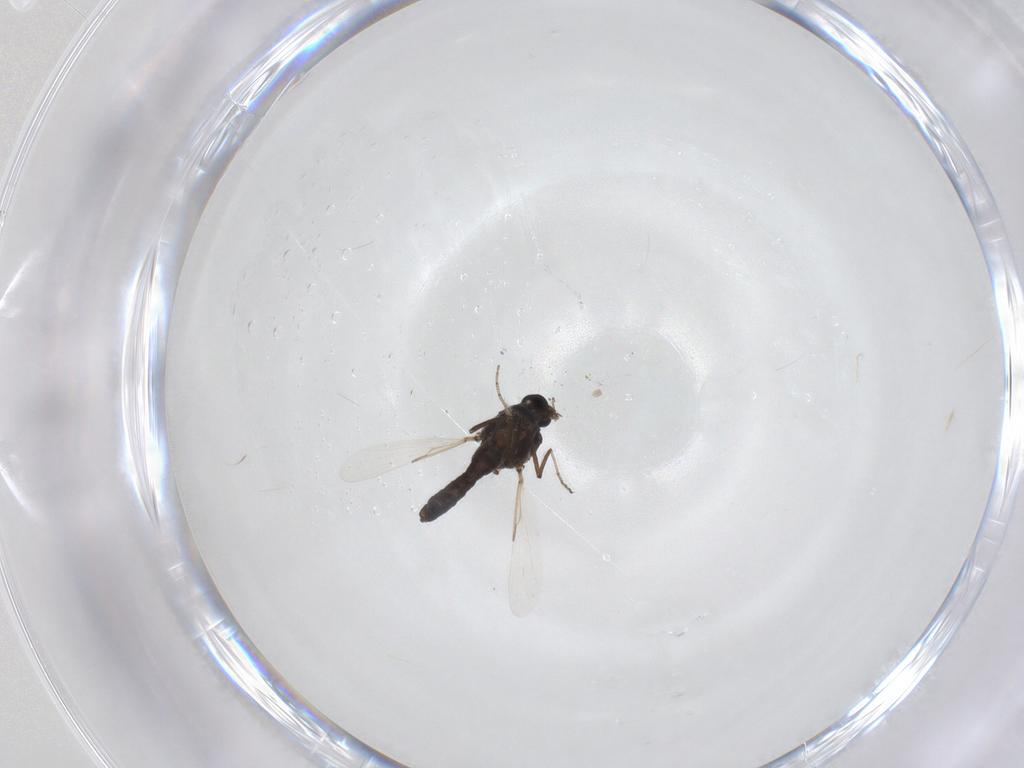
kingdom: Animalia
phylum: Arthropoda
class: Insecta
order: Diptera
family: Ceratopogonidae
